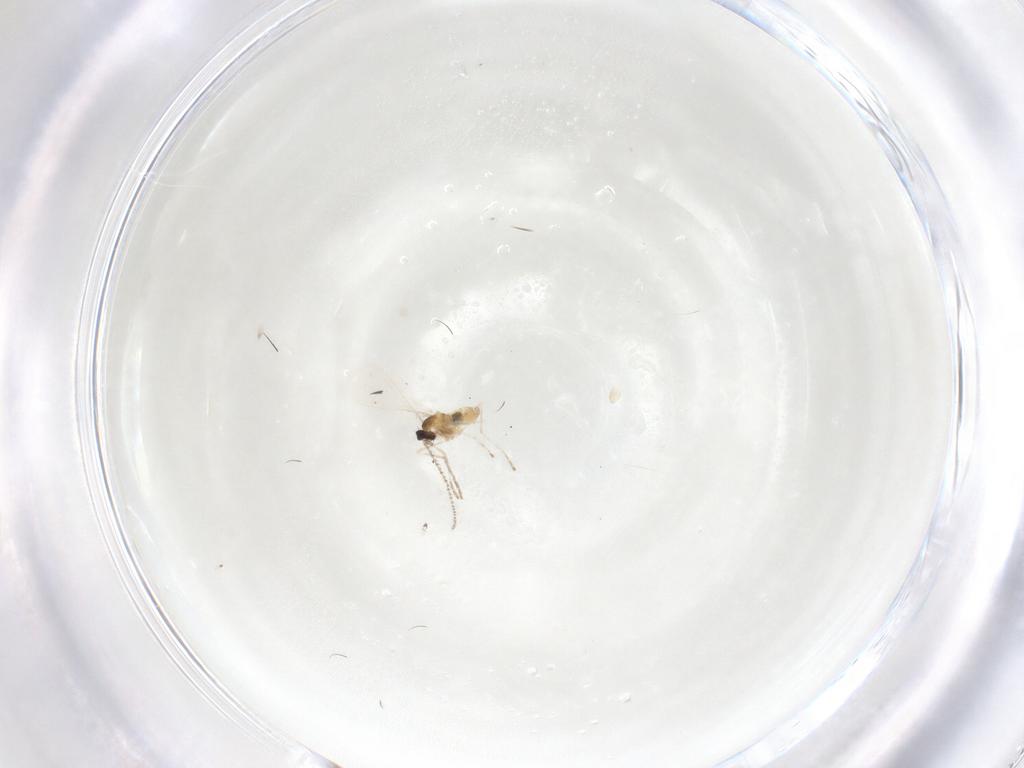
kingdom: Animalia
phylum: Arthropoda
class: Insecta
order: Diptera
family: Ceratopogonidae
